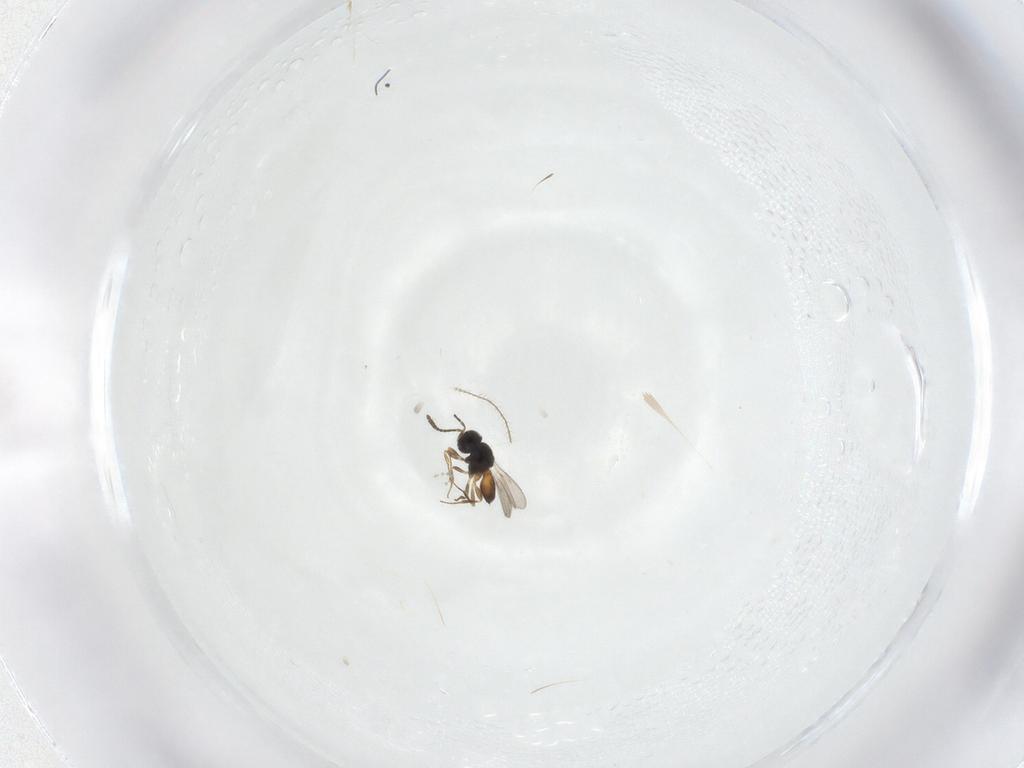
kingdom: Animalia
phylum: Arthropoda
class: Insecta
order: Hymenoptera
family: Scelionidae
